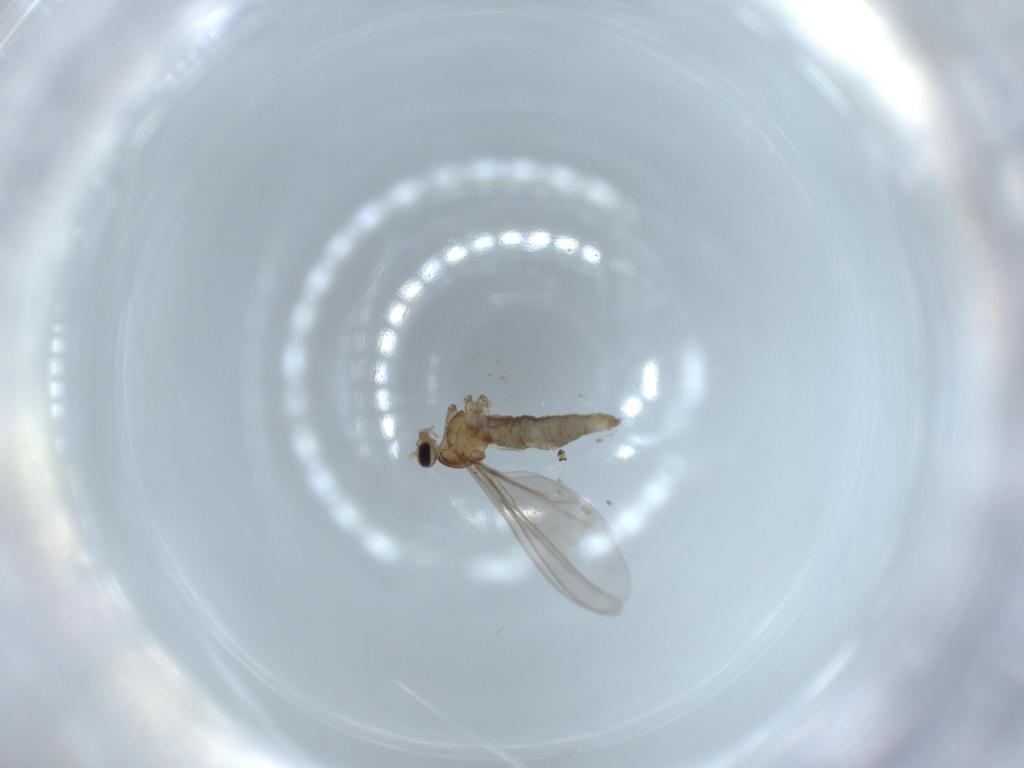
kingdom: Animalia
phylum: Arthropoda
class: Insecta
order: Diptera
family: Cecidomyiidae
